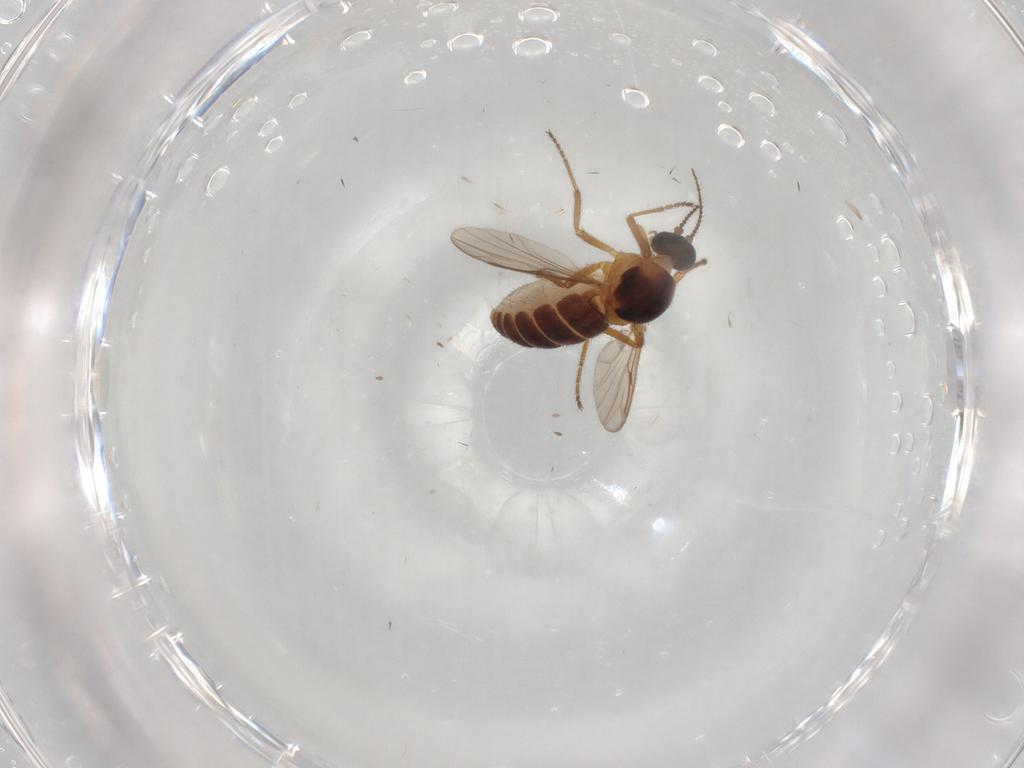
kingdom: Animalia
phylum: Arthropoda
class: Insecta
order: Diptera
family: Ceratopogonidae
